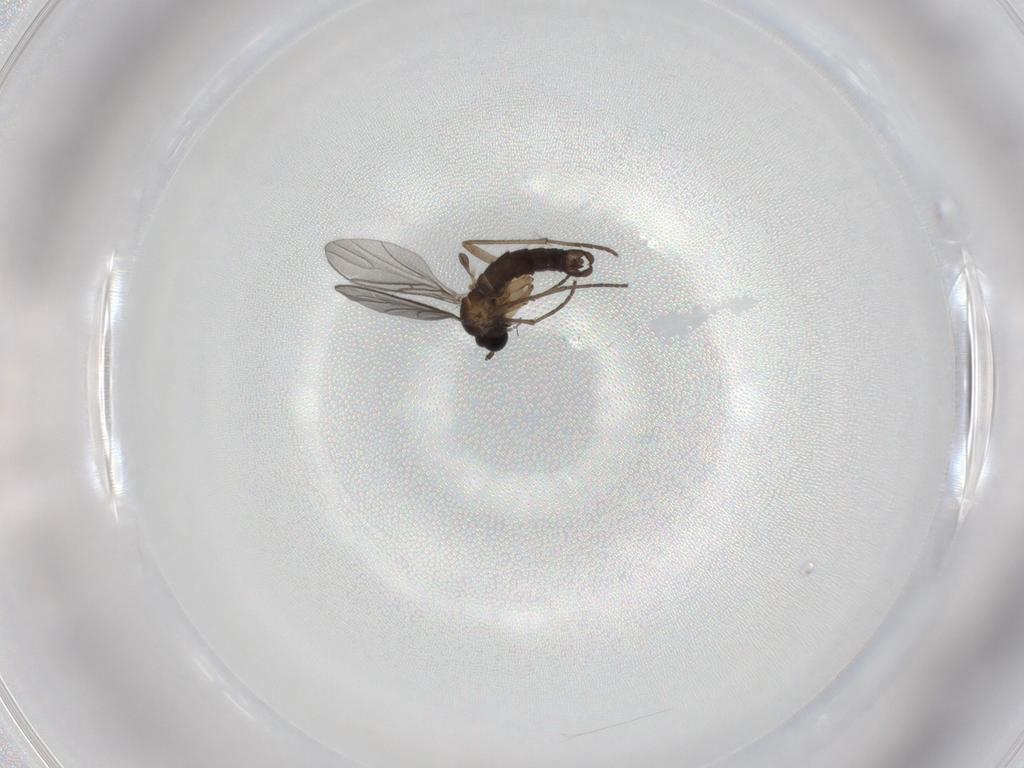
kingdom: Animalia
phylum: Arthropoda
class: Insecta
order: Diptera
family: Sciaridae
